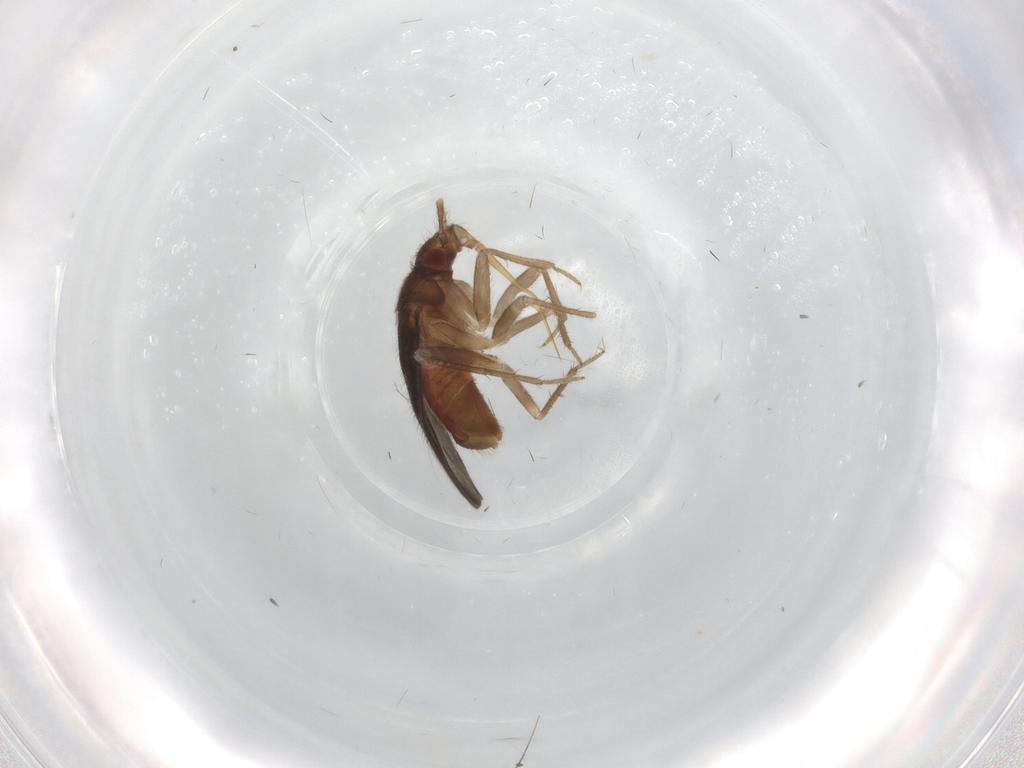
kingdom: Animalia
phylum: Arthropoda
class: Insecta
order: Hemiptera
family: Ceratocombidae
